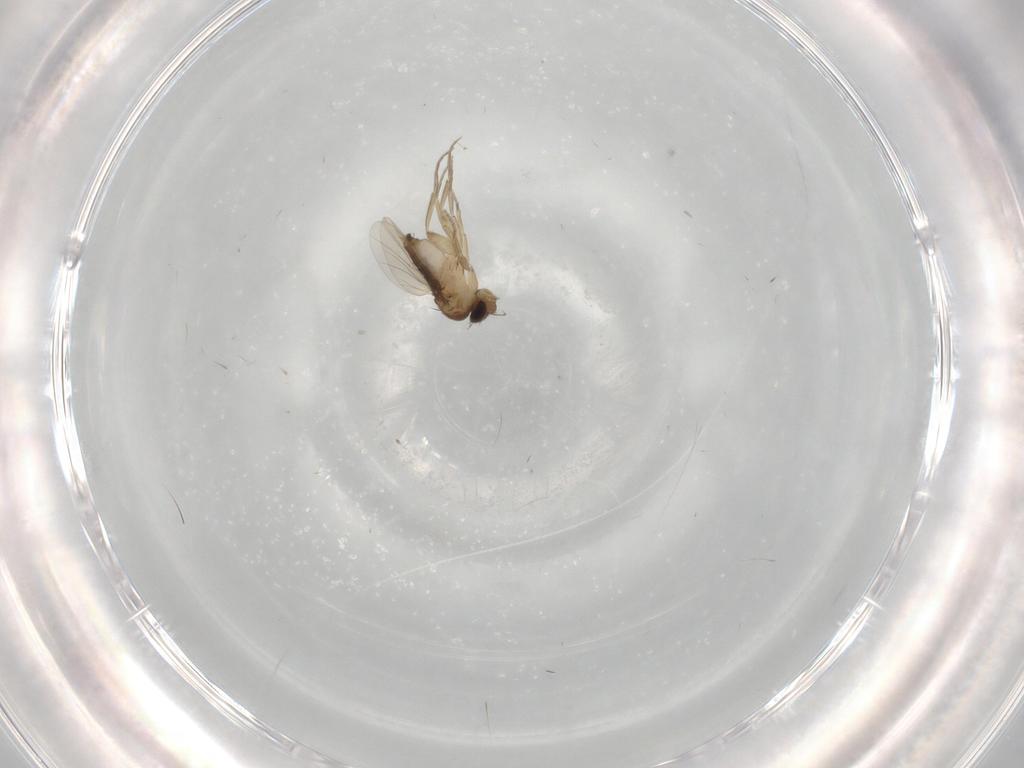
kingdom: Animalia
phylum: Arthropoda
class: Insecta
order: Diptera
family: Phoridae
